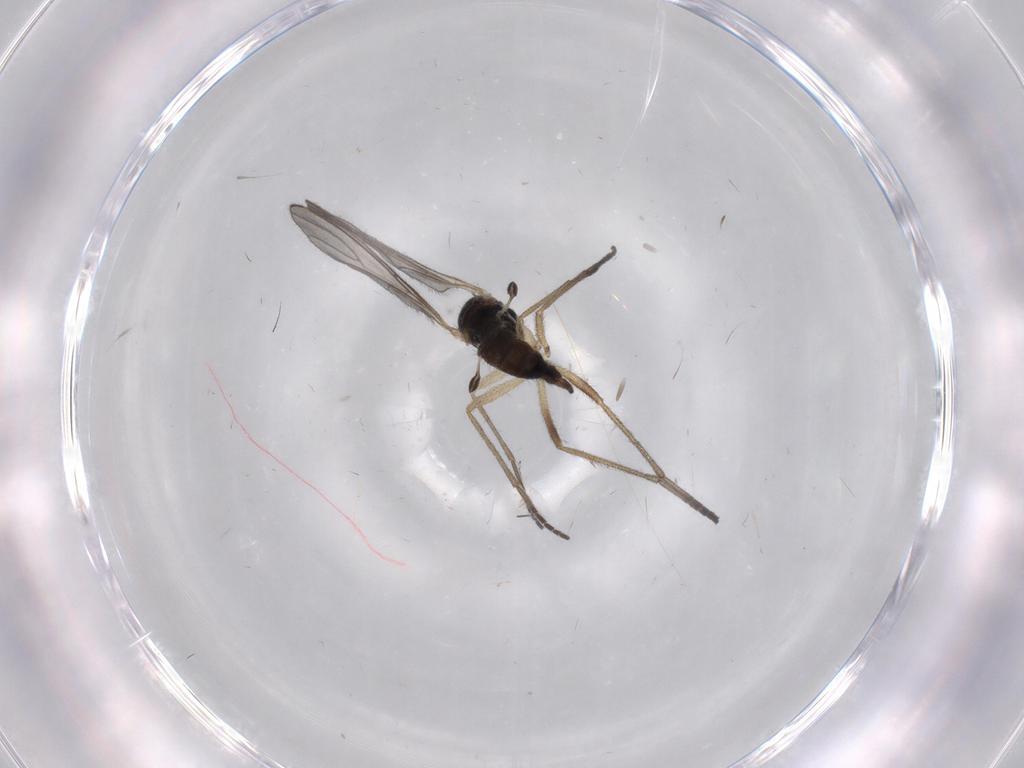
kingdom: Animalia
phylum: Arthropoda
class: Insecta
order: Diptera
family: Sciaridae
